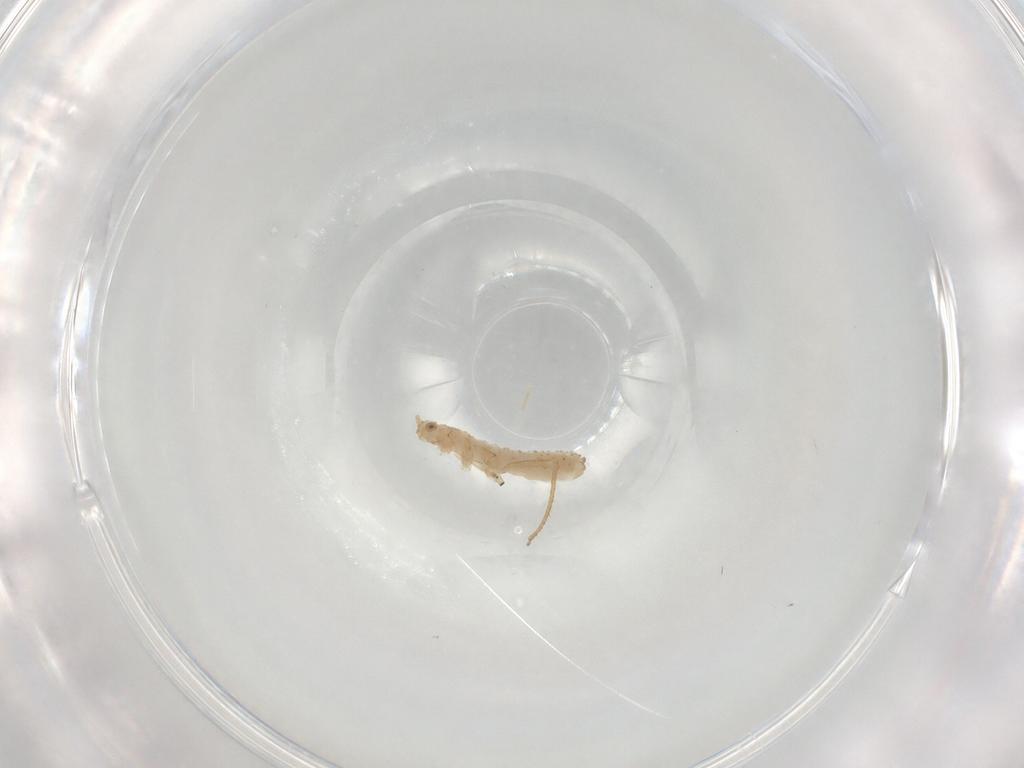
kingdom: Animalia
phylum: Arthropoda
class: Insecta
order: Hemiptera
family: Aphididae
